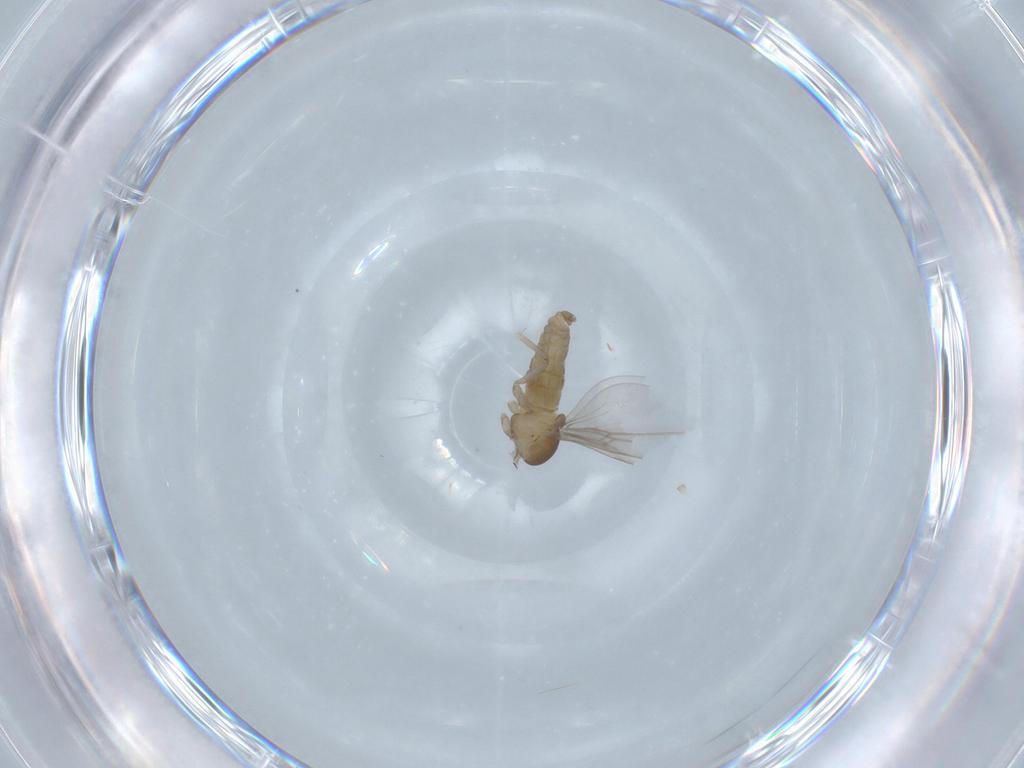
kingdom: Animalia
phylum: Arthropoda
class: Insecta
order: Diptera
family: Cecidomyiidae
